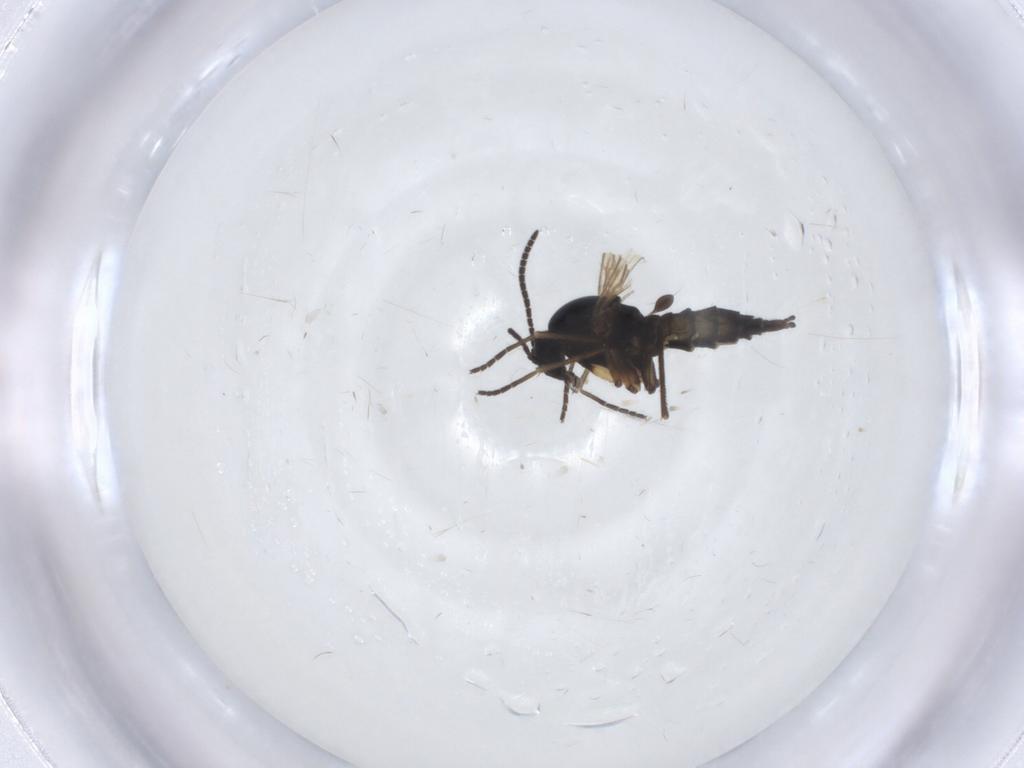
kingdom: Animalia
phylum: Arthropoda
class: Insecta
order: Diptera
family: Sciaridae
